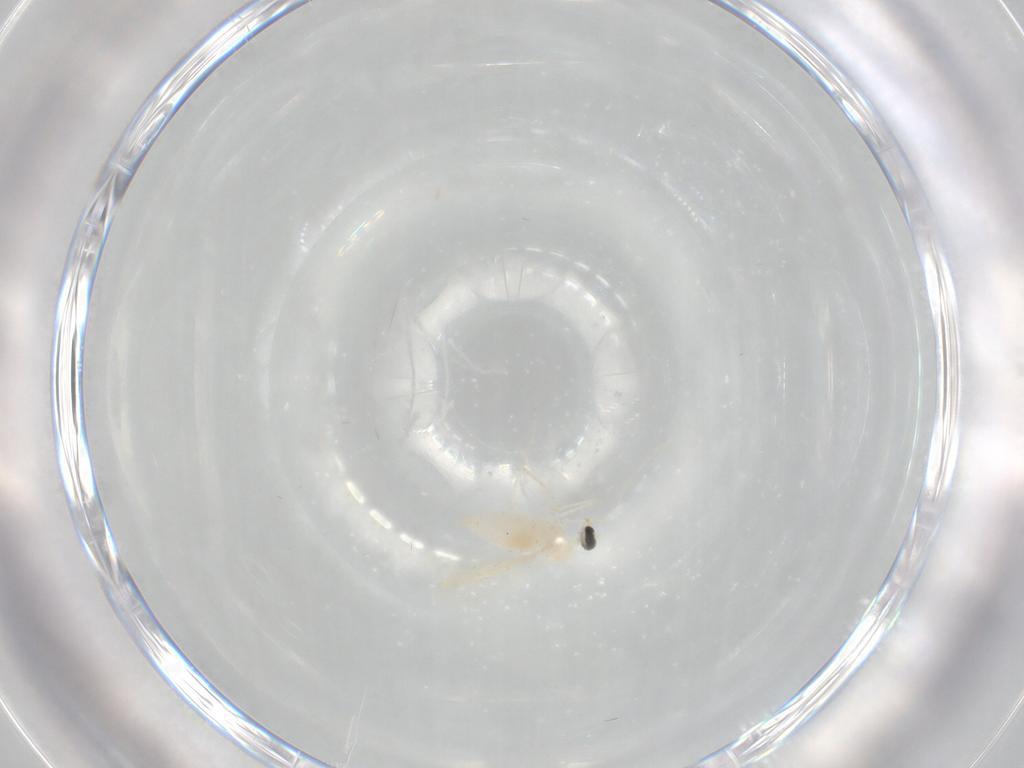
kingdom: Animalia
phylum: Arthropoda
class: Insecta
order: Diptera
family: Cecidomyiidae
